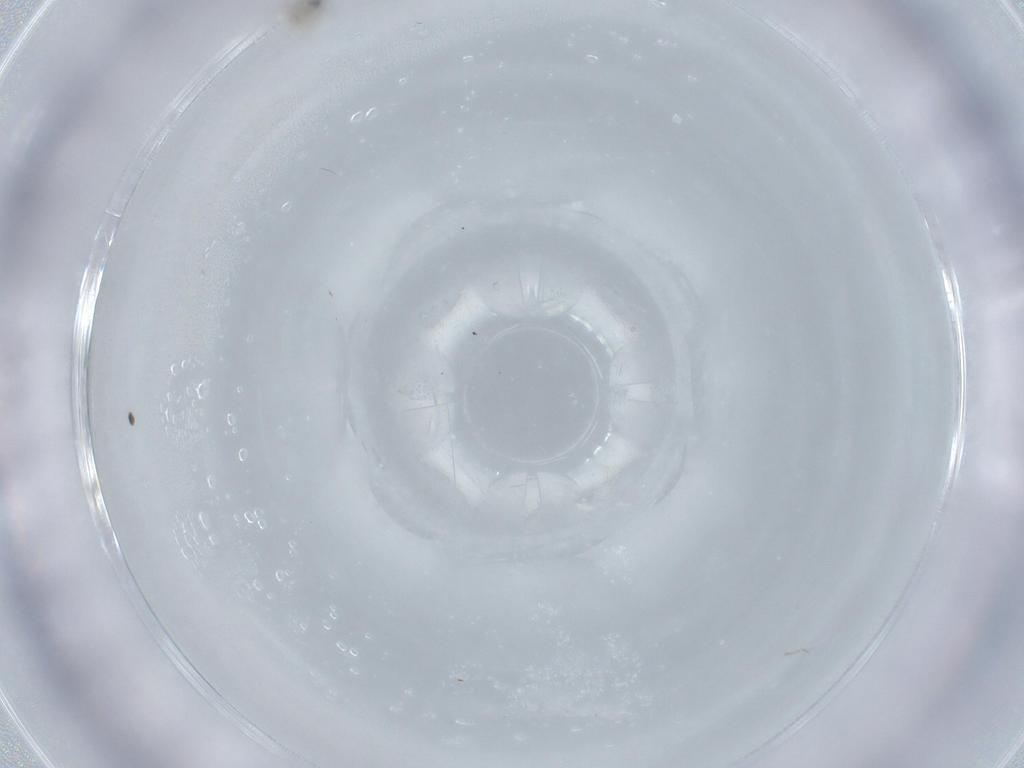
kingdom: Animalia
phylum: Arthropoda
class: Insecta
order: Diptera
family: Cecidomyiidae
